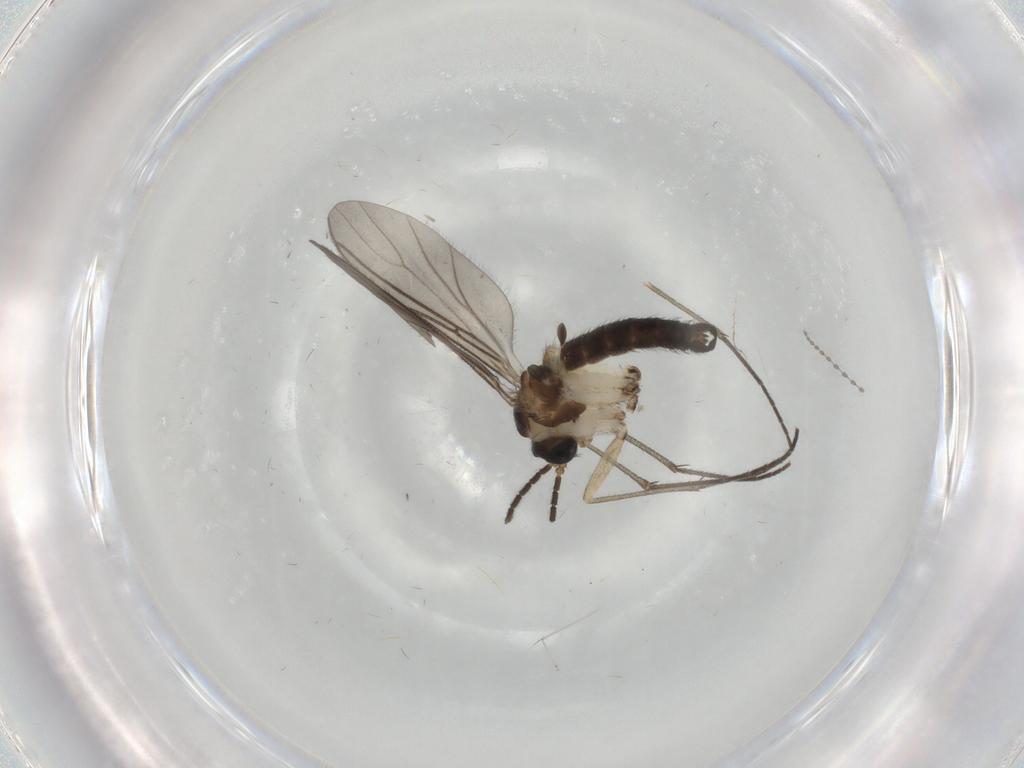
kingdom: Animalia
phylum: Arthropoda
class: Insecta
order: Diptera
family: Sciaridae
